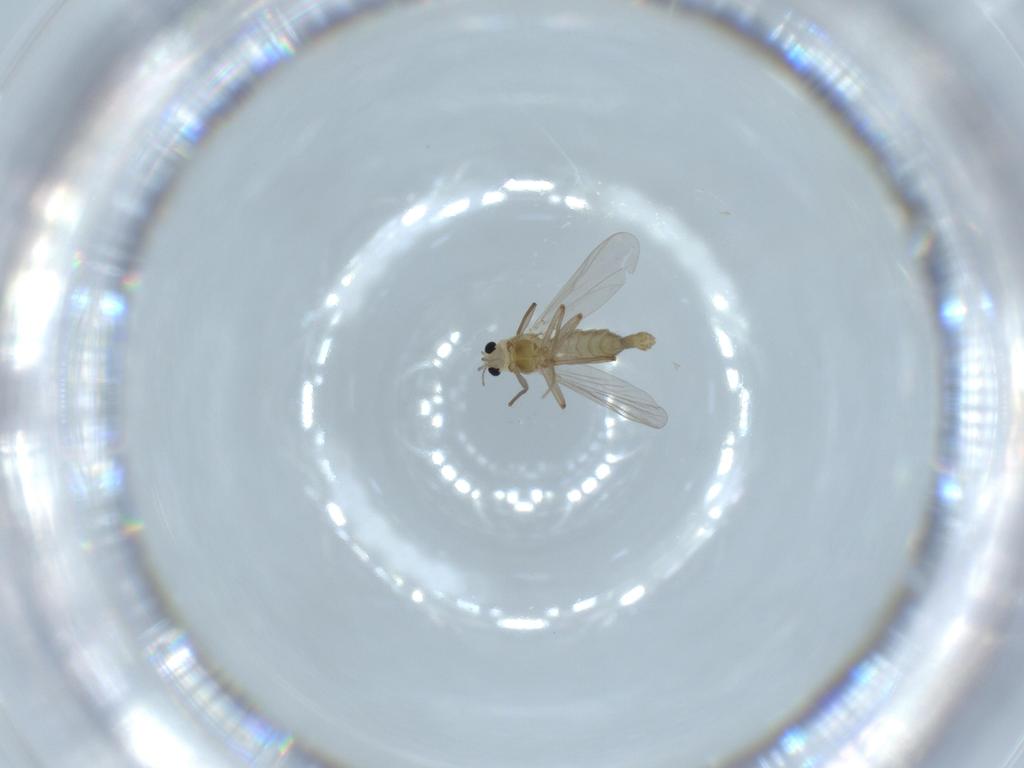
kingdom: Animalia
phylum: Arthropoda
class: Insecta
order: Diptera
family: Chironomidae
